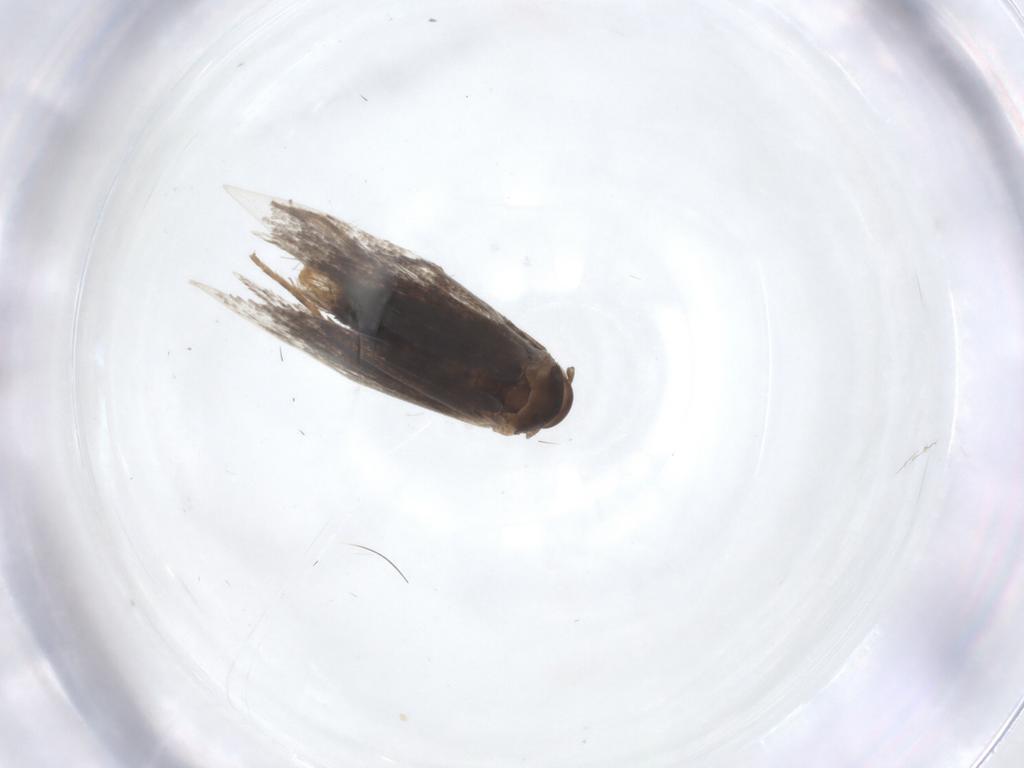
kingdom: Animalia
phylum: Arthropoda
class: Insecta
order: Lepidoptera
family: Elachistidae
